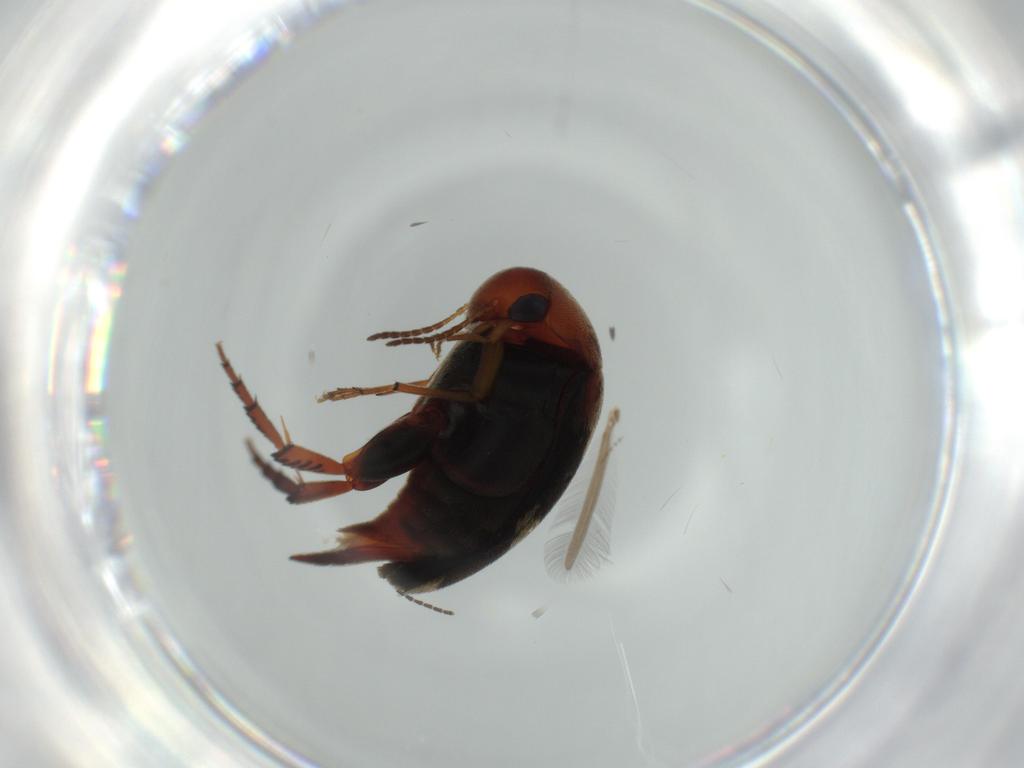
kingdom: Animalia
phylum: Arthropoda
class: Insecta
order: Coleoptera
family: Mordellidae
